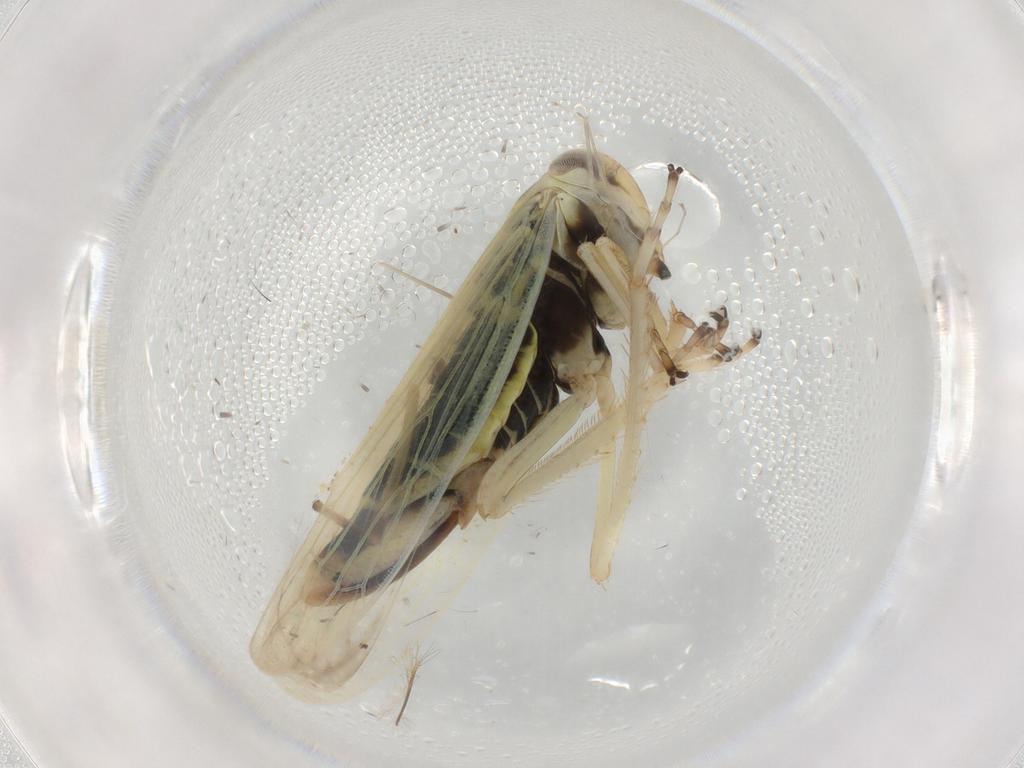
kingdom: Animalia
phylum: Arthropoda
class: Insecta
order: Hemiptera
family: Cicadellidae
